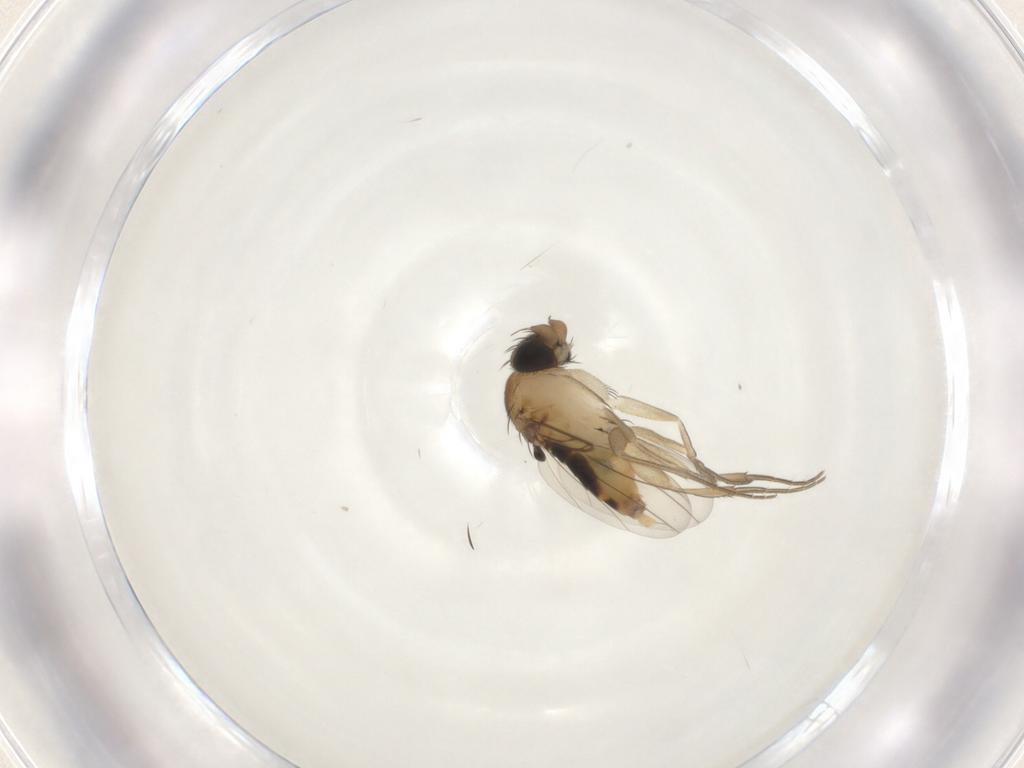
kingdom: Animalia
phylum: Arthropoda
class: Insecta
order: Diptera
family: Phoridae
